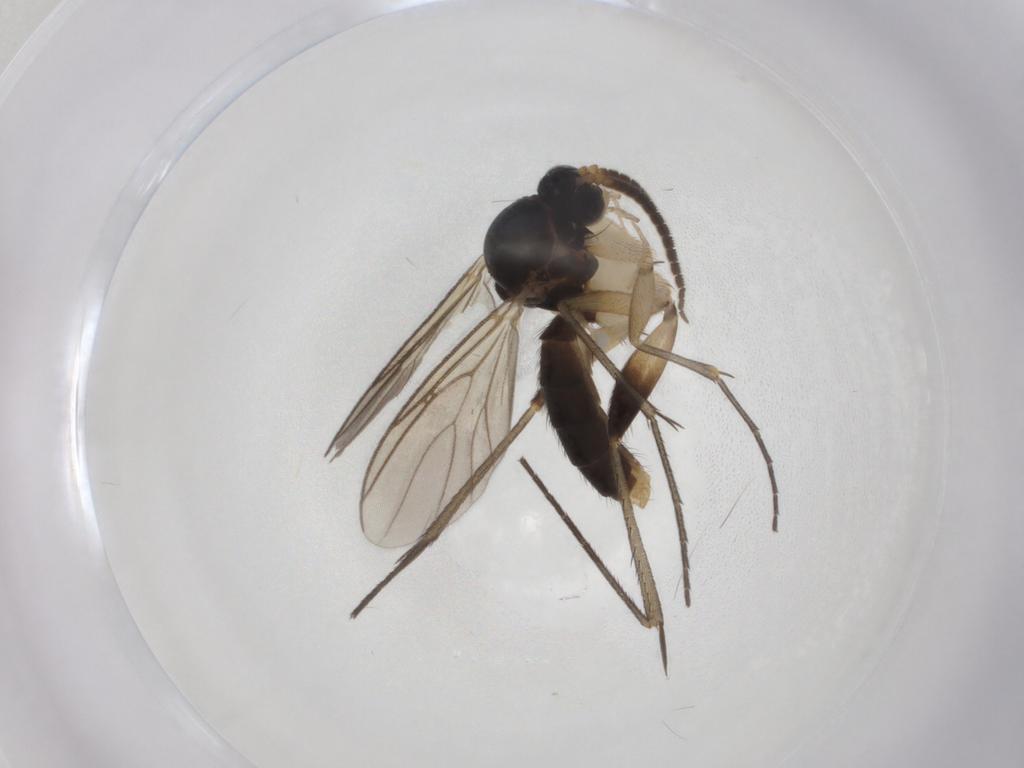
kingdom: Animalia
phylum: Arthropoda
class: Insecta
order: Diptera
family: Mycetophilidae
